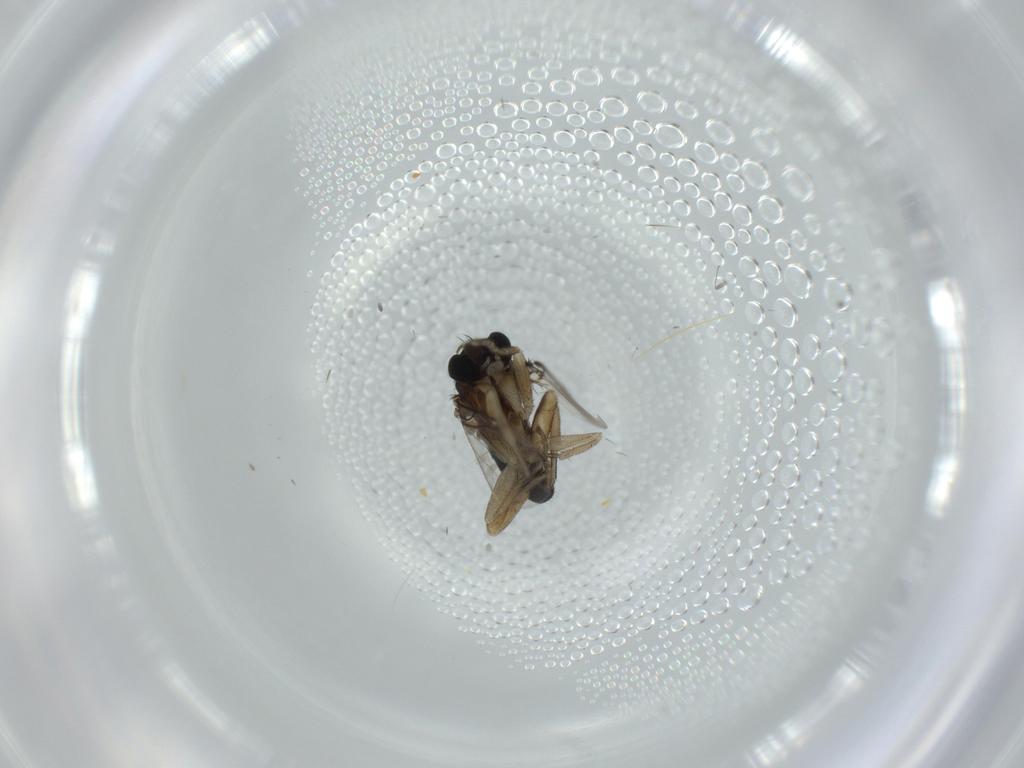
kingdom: Animalia
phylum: Arthropoda
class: Insecta
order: Diptera
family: Phoridae
